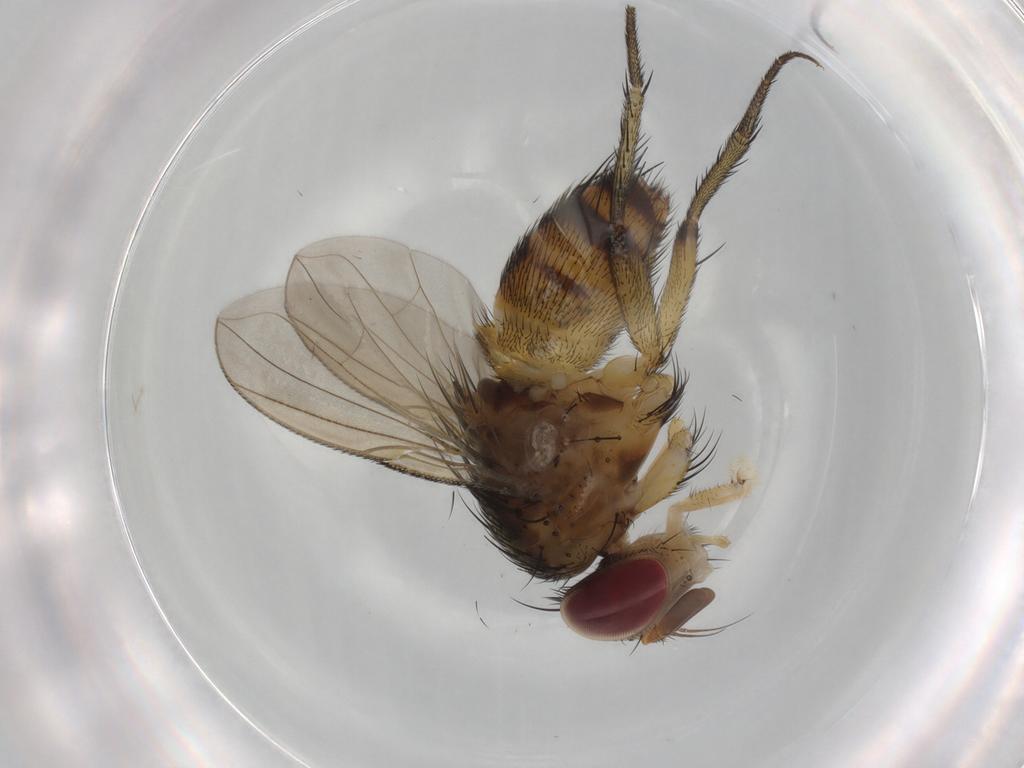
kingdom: Animalia
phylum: Arthropoda
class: Insecta
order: Diptera
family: Tachinidae
